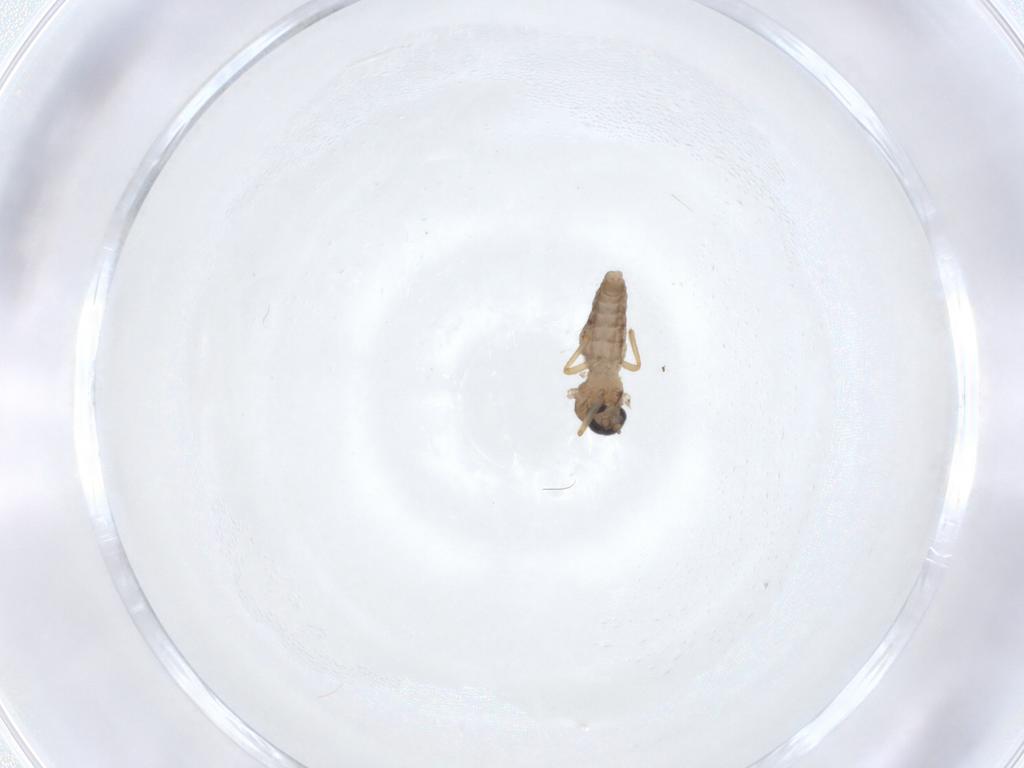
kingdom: Animalia
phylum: Arthropoda
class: Insecta
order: Diptera
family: Ceratopogonidae
